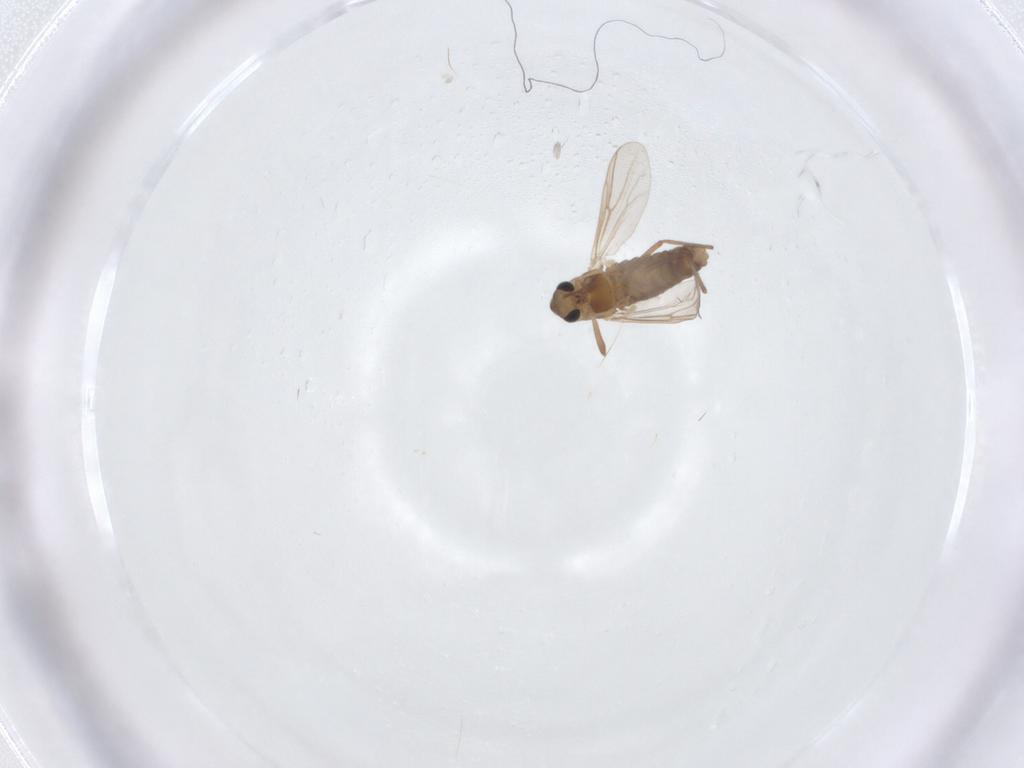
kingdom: Animalia
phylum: Arthropoda
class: Insecta
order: Diptera
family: Chironomidae
